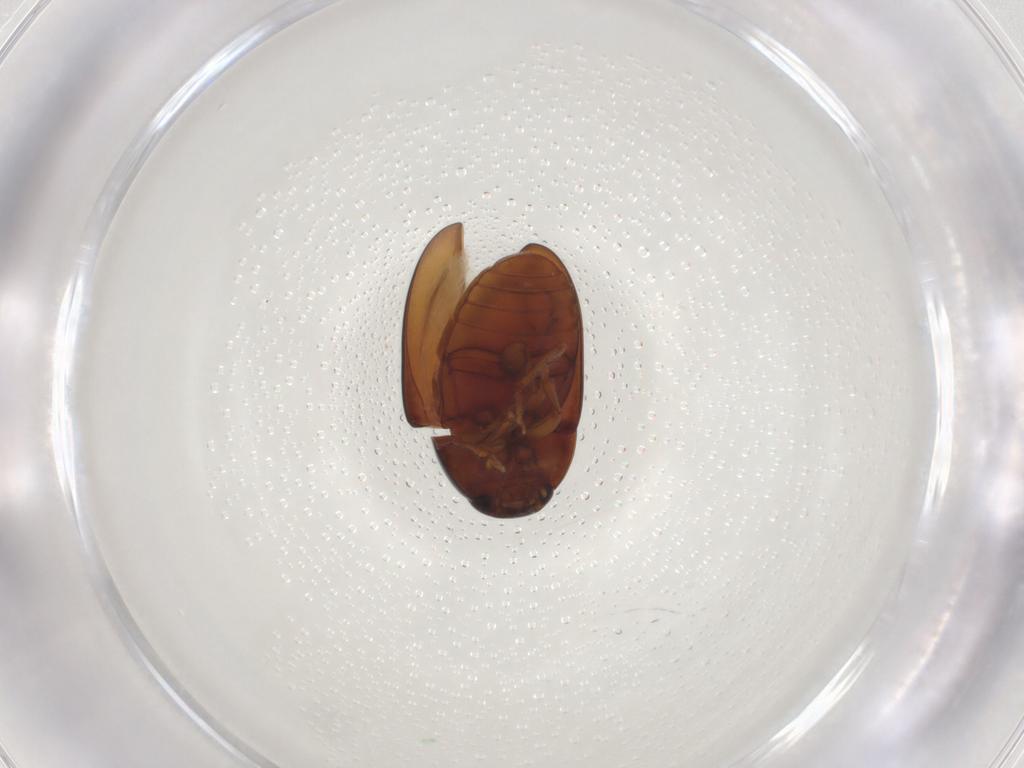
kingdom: Animalia
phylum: Arthropoda
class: Insecta
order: Coleoptera
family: Phalacridae
